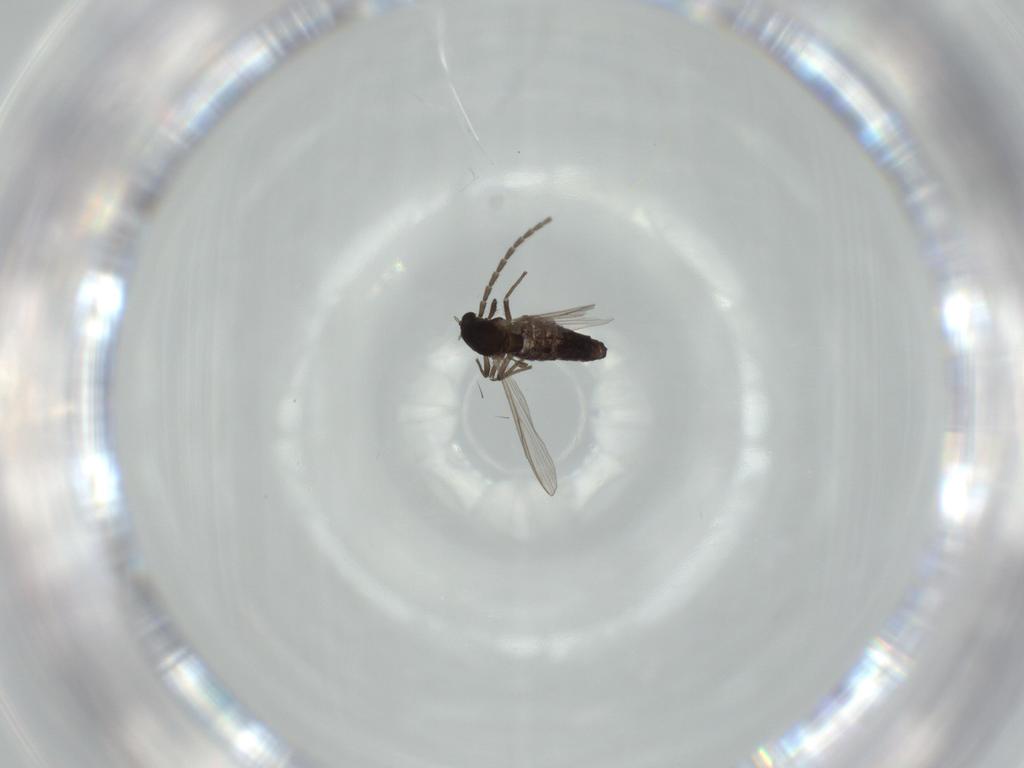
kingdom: Animalia
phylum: Arthropoda
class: Insecta
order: Diptera
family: Chironomidae
